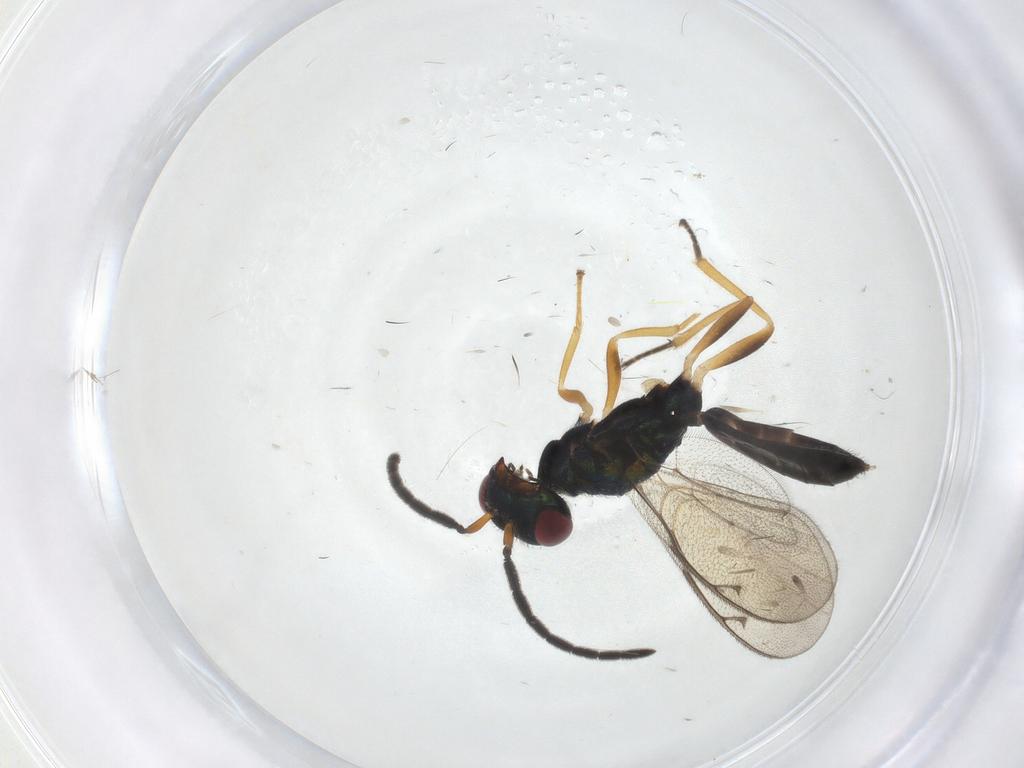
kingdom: Animalia
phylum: Arthropoda
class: Insecta
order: Hymenoptera
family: Pteromalidae
